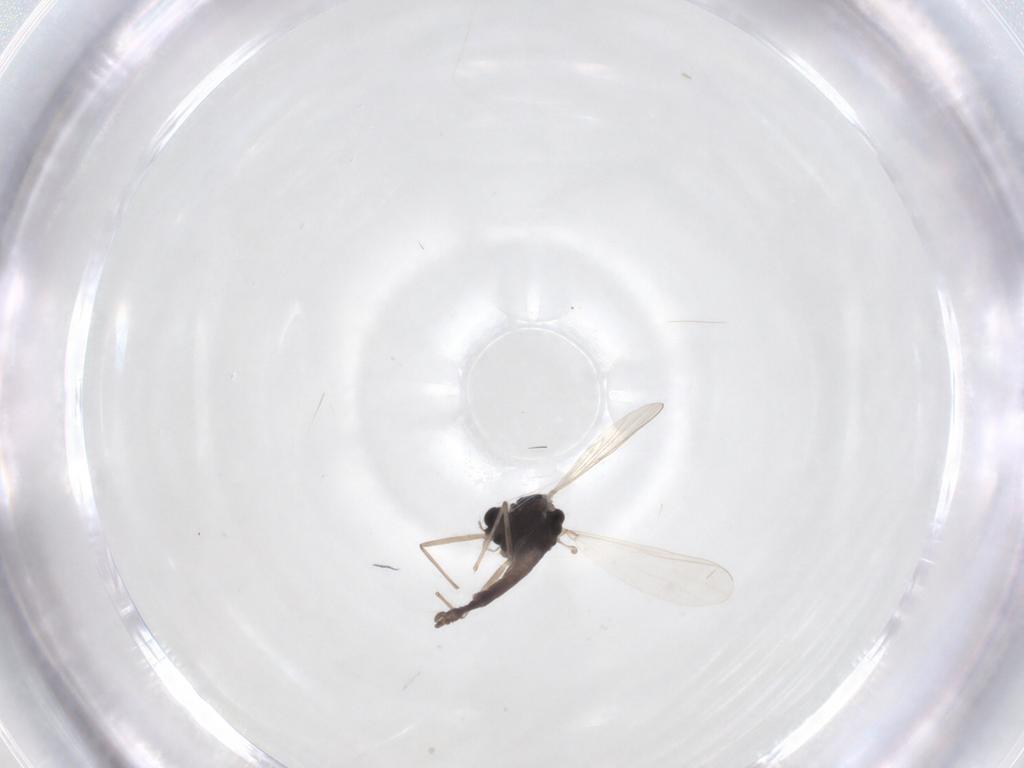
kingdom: Animalia
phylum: Arthropoda
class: Insecta
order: Diptera
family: Chironomidae
